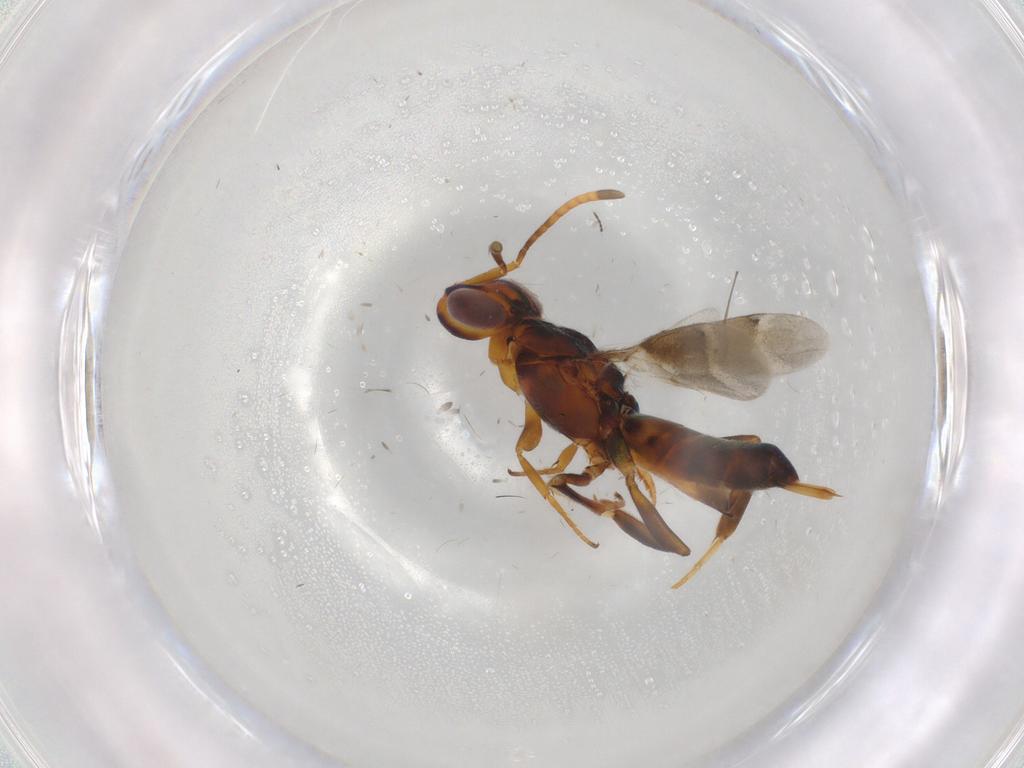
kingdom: Animalia
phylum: Arthropoda
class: Insecta
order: Hymenoptera
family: Eupelmidae
